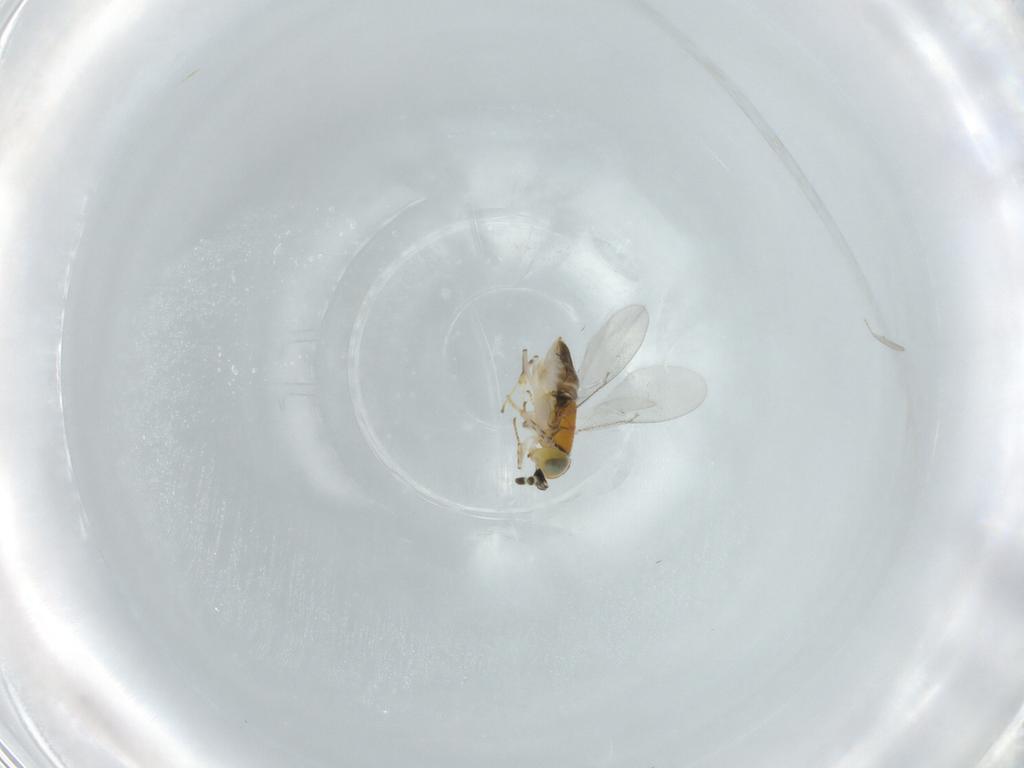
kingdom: Animalia
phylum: Arthropoda
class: Insecta
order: Hymenoptera
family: Encyrtidae
